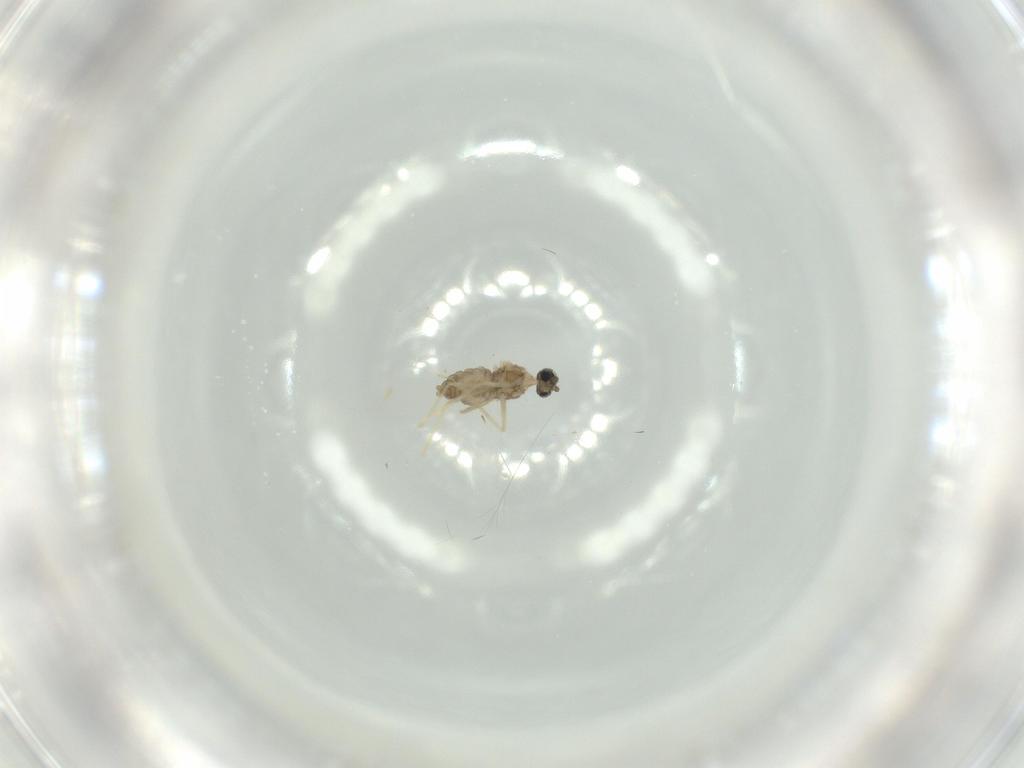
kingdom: Animalia
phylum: Arthropoda
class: Insecta
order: Diptera
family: Cecidomyiidae
